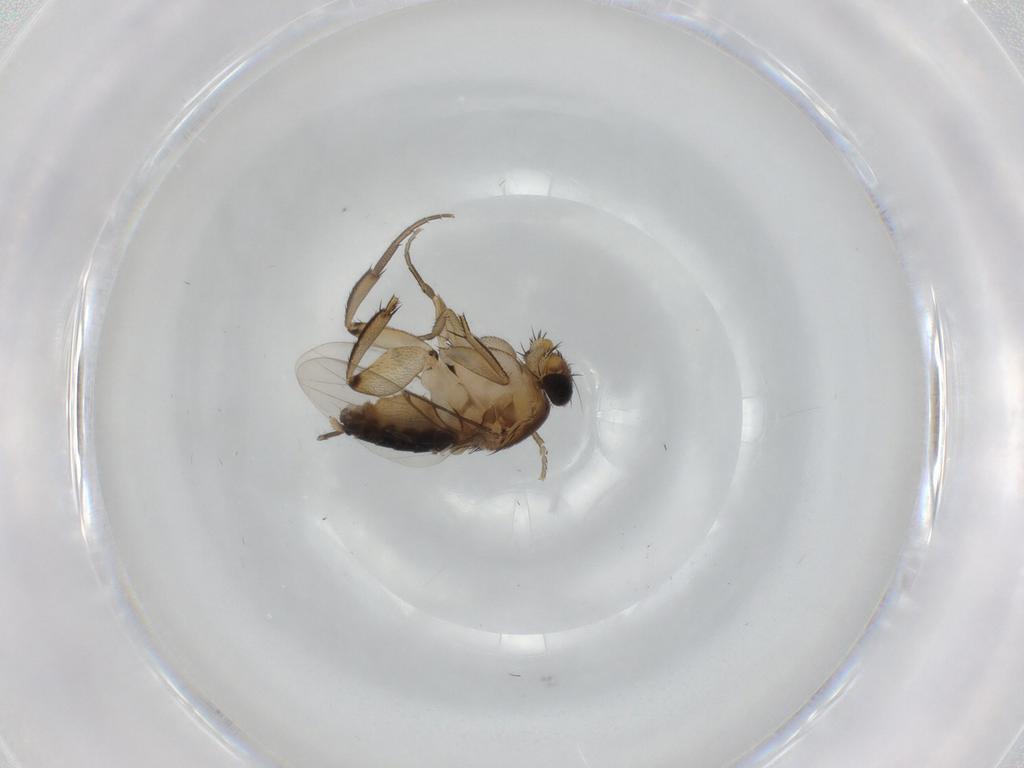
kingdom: Animalia
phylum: Arthropoda
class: Insecta
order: Diptera
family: Phoridae
